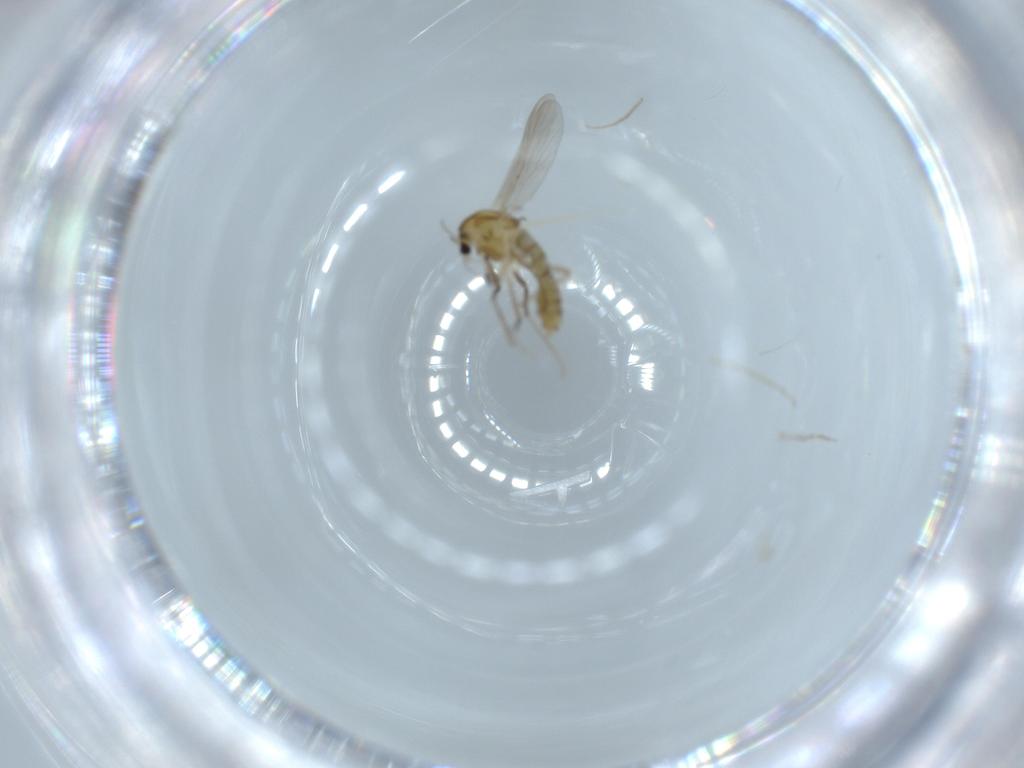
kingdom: Animalia
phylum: Arthropoda
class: Insecta
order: Diptera
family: Chironomidae
